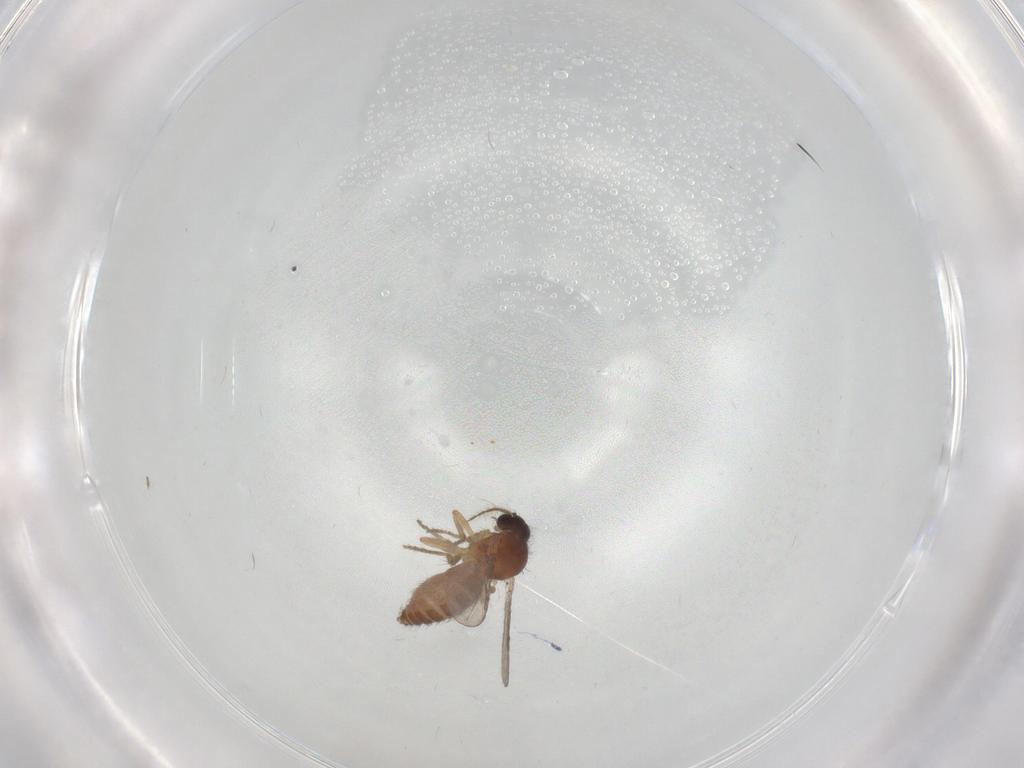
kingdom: Animalia
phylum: Arthropoda
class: Insecta
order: Diptera
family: Ceratopogonidae
